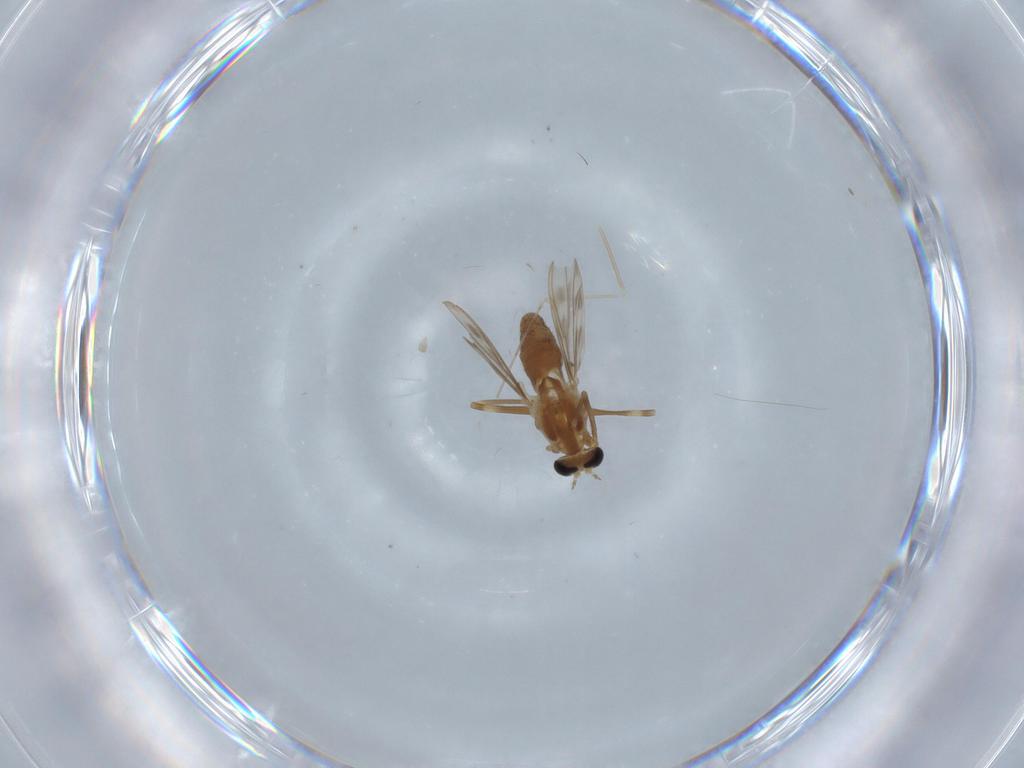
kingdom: Animalia
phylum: Arthropoda
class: Insecta
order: Diptera
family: Chironomidae
